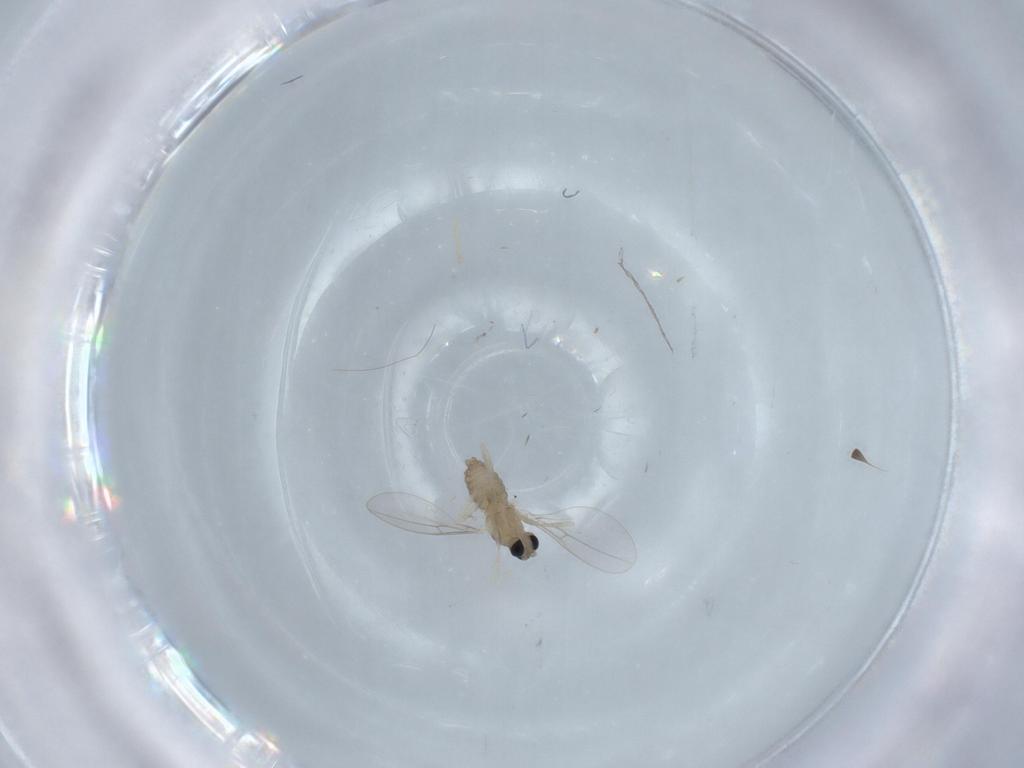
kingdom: Animalia
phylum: Arthropoda
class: Insecta
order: Diptera
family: Cecidomyiidae
